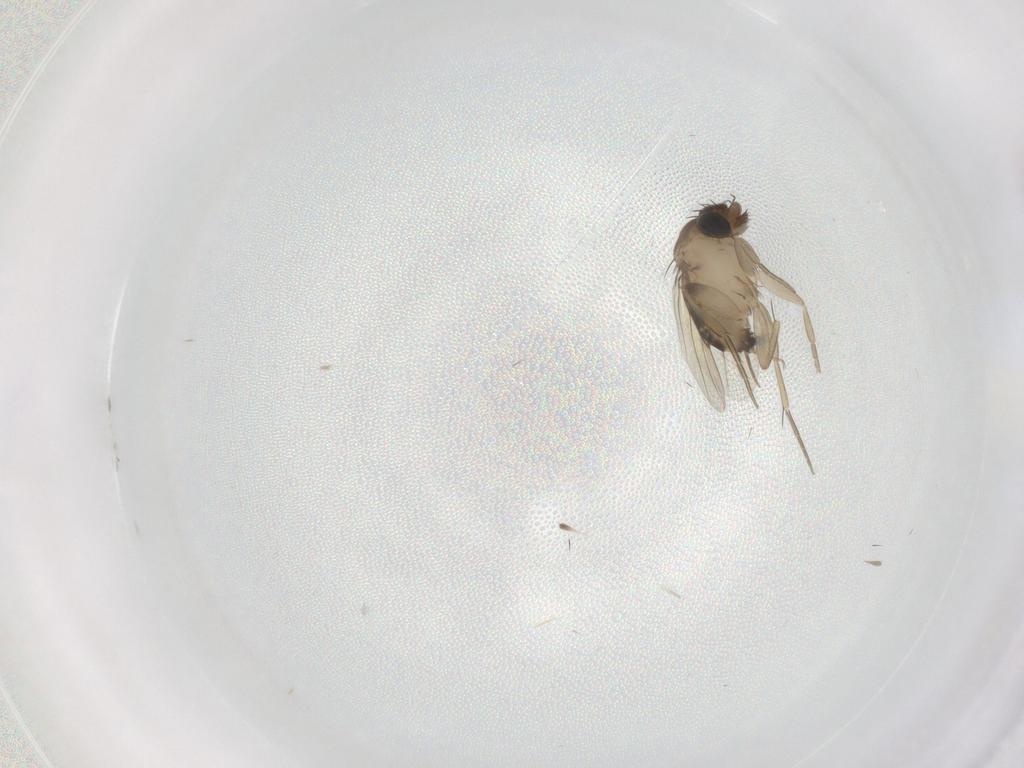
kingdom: Animalia
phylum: Arthropoda
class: Insecta
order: Diptera
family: Phoridae
